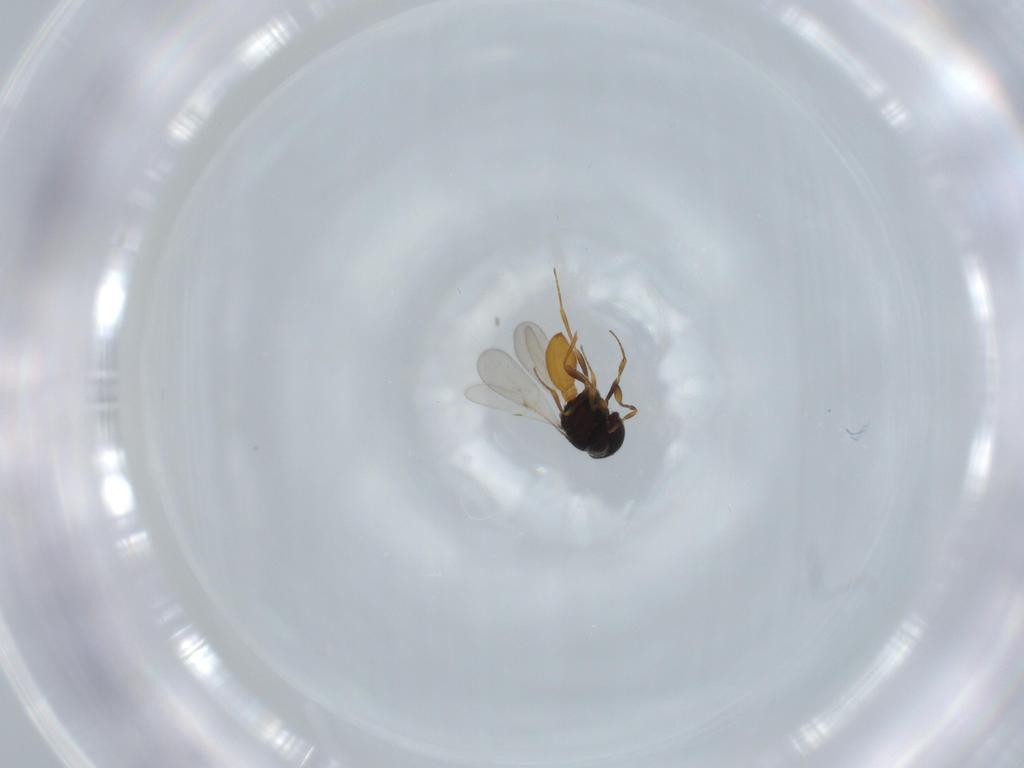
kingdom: Animalia
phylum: Arthropoda
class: Insecta
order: Hymenoptera
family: Scelionidae
